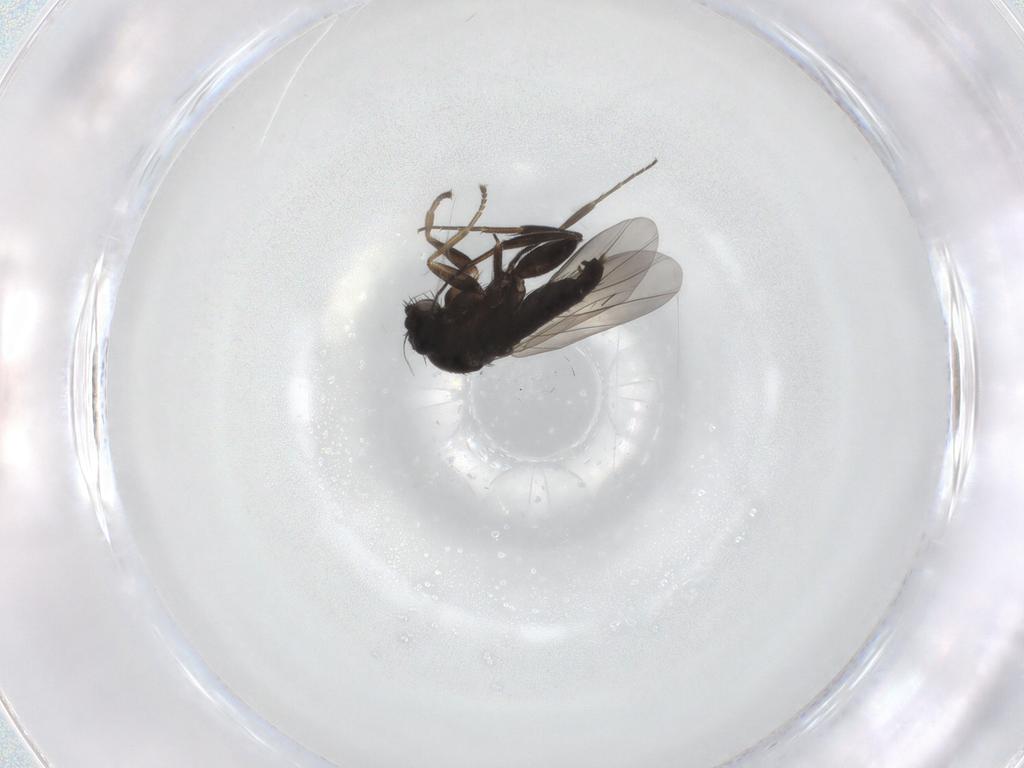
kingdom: Animalia
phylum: Arthropoda
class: Insecta
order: Diptera
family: Phoridae
